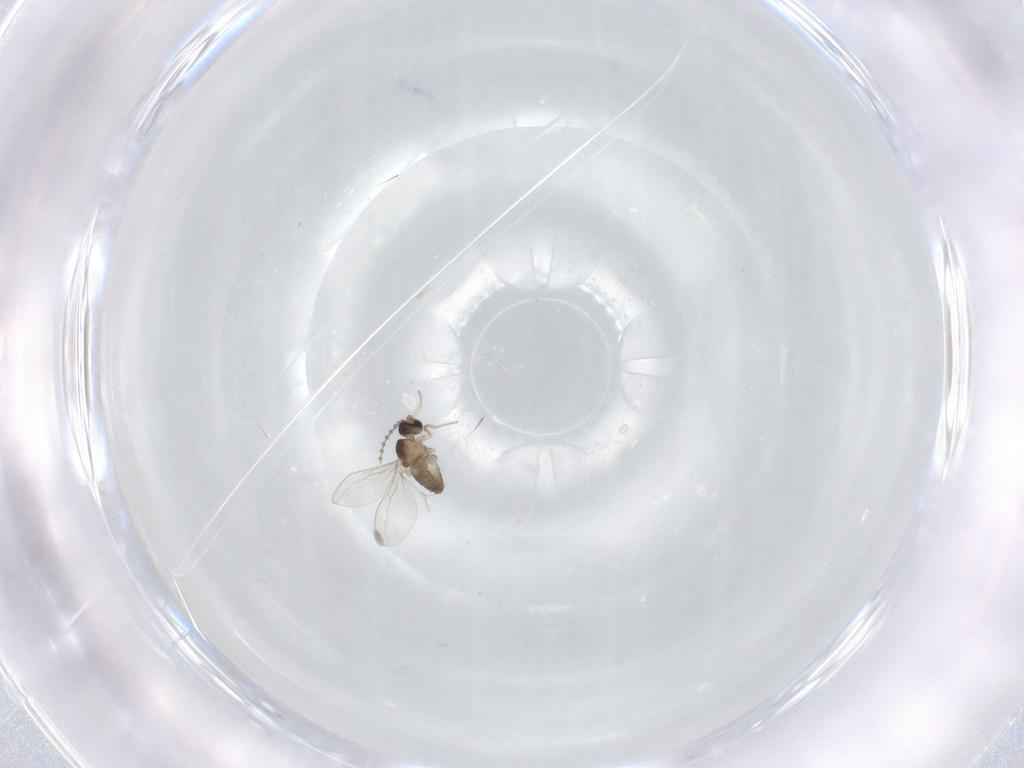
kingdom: Animalia
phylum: Arthropoda
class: Insecta
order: Diptera
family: Cecidomyiidae
